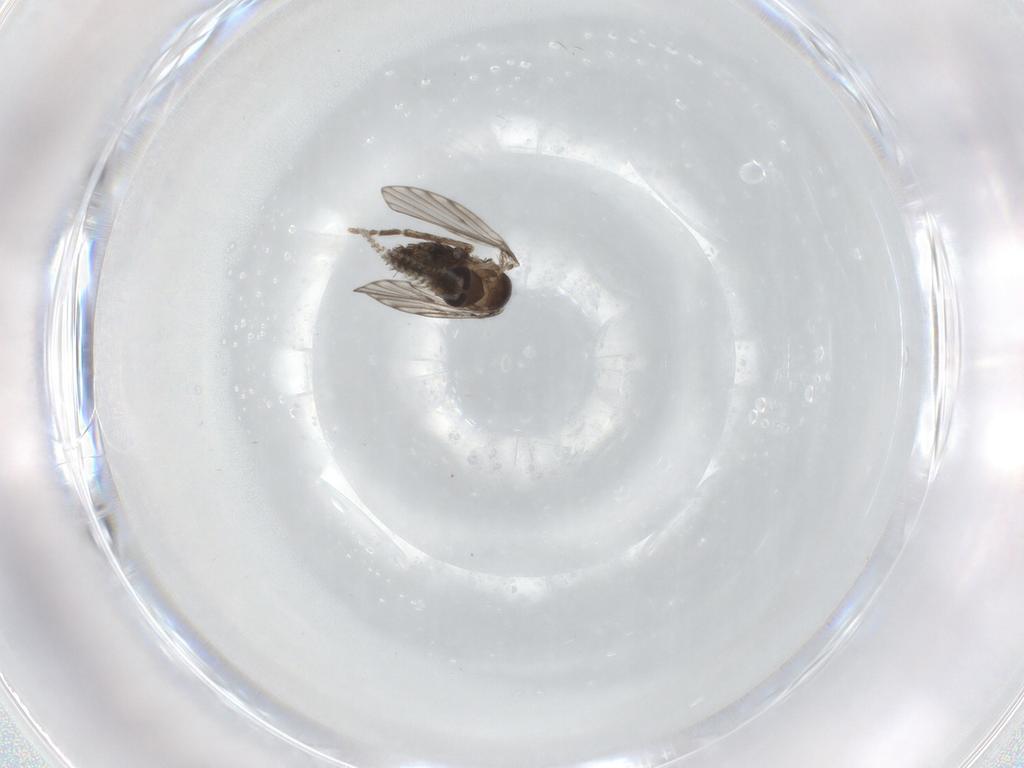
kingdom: Animalia
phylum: Arthropoda
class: Insecta
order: Diptera
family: Psychodidae
